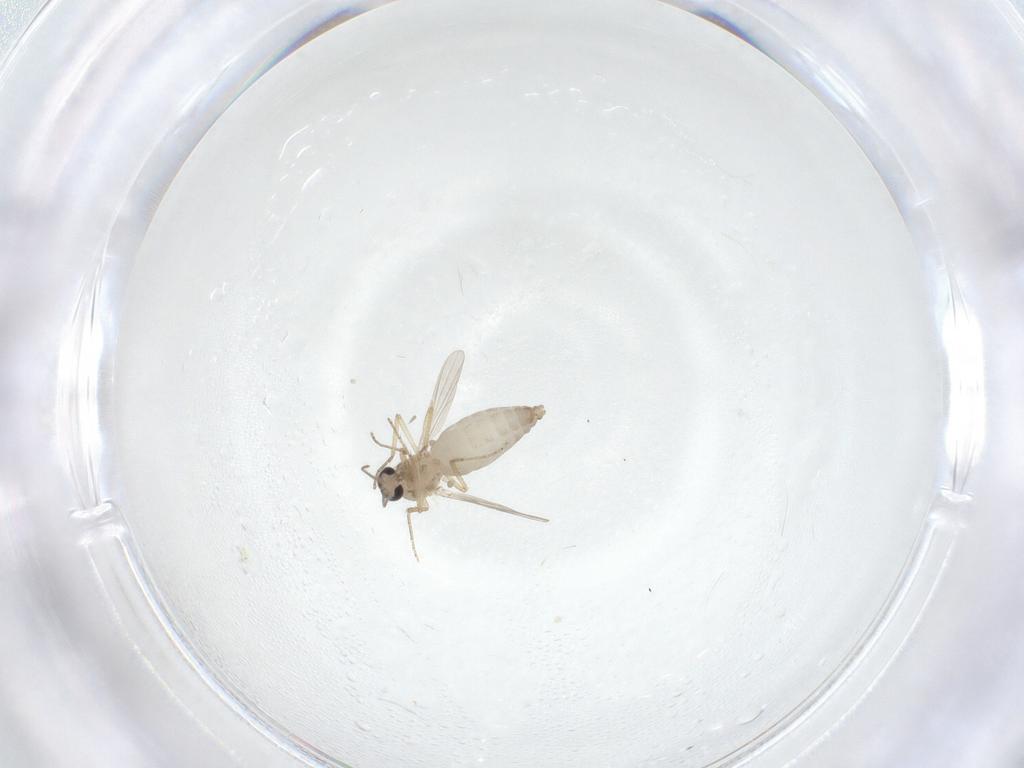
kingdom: Animalia
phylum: Arthropoda
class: Insecta
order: Diptera
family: Ceratopogonidae
